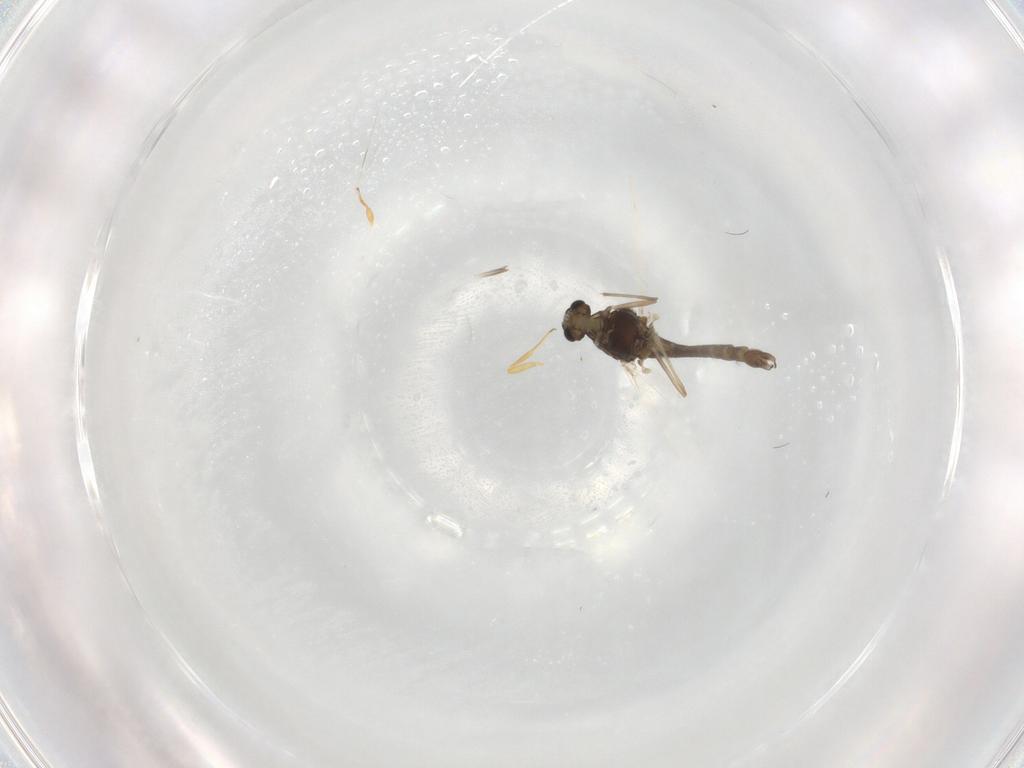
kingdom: Animalia
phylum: Arthropoda
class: Insecta
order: Diptera
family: Chironomidae
